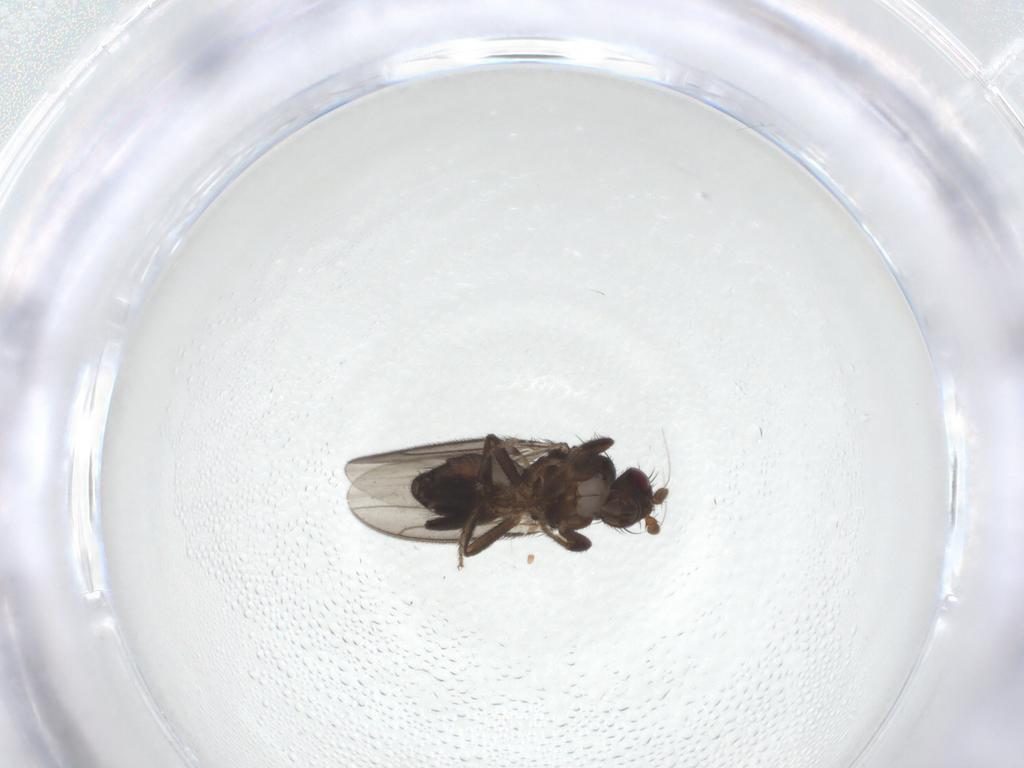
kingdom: Animalia
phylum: Arthropoda
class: Insecta
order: Diptera
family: Sphaeroceridae
